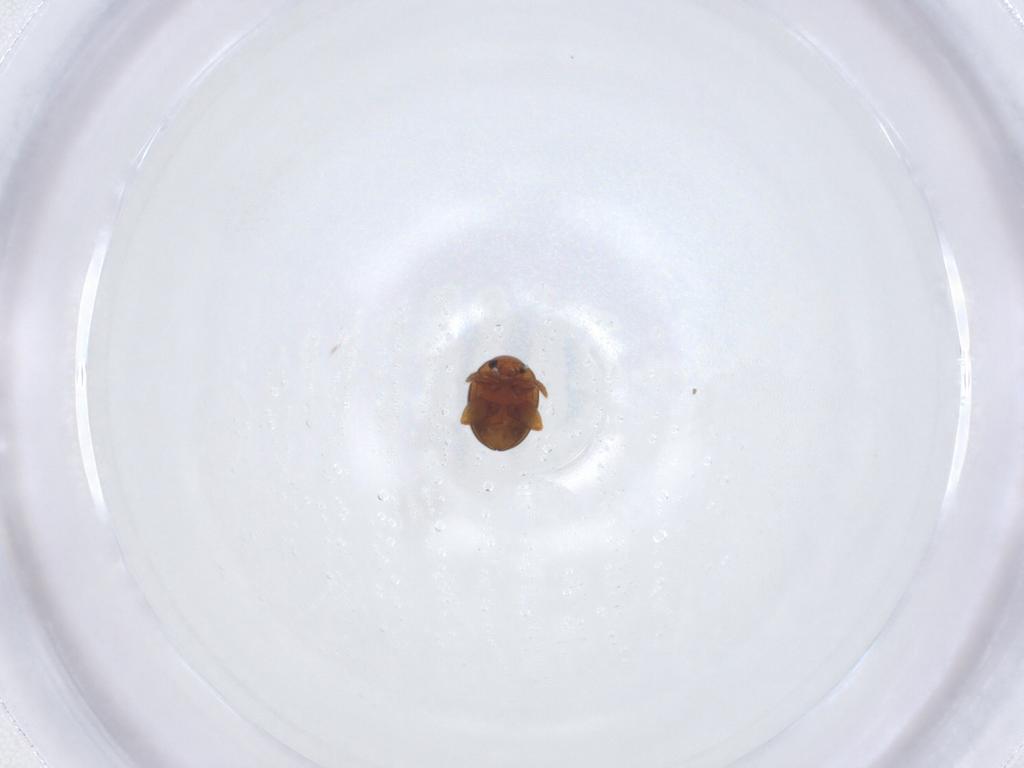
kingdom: Animalia
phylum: Arthropoda
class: Insecta
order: Coleoptera
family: Chrysomelidae
